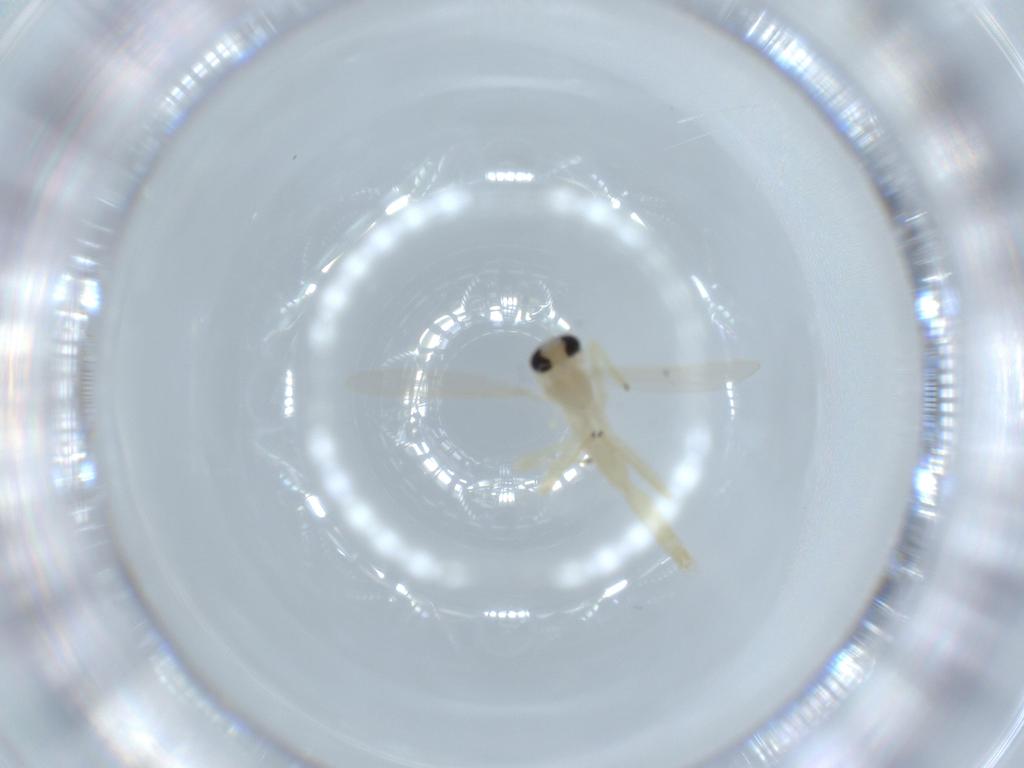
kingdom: Animalia
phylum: Arthropoda
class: Insecta
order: Diptera
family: Chironomidae
